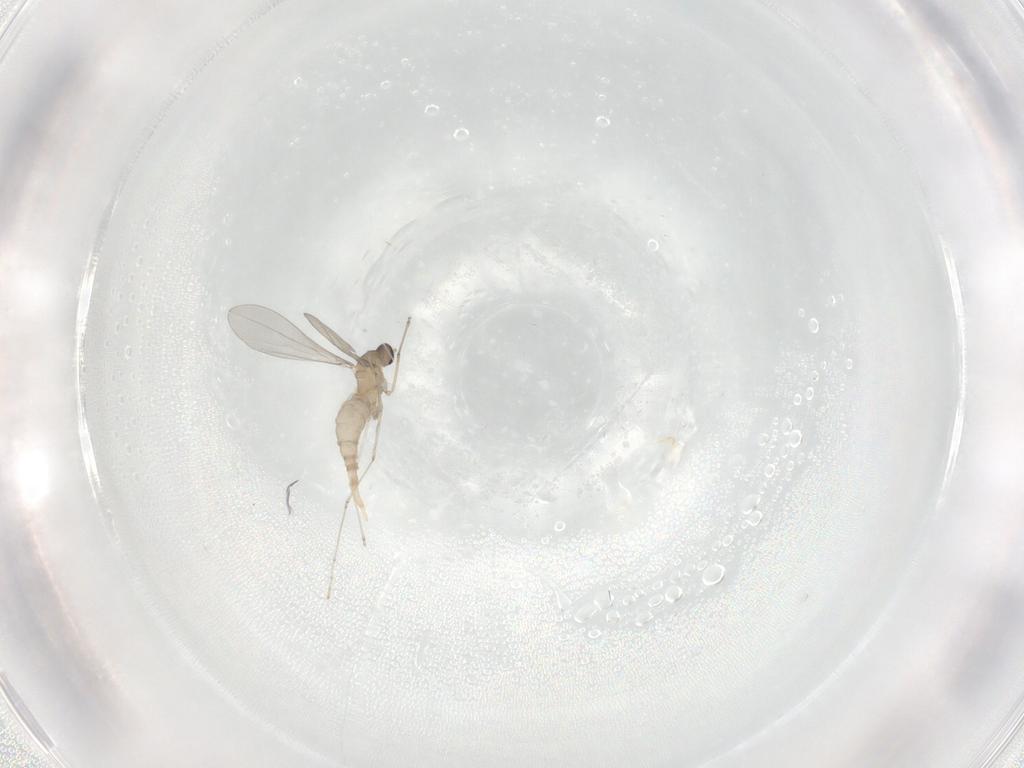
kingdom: Animalia
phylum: Arthropoda
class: Insecta
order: Diptera
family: Cecidomyiidae
